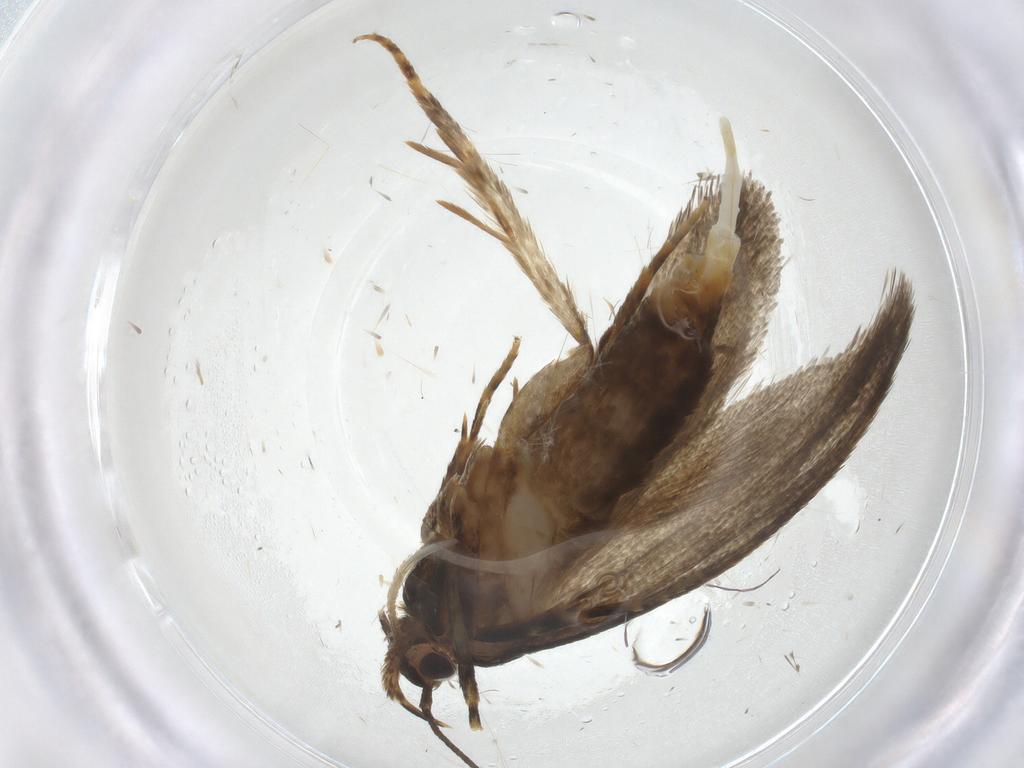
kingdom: Animalia
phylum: Arthropoda
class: Insecta
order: Lepidoptera
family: Oecophoridae
